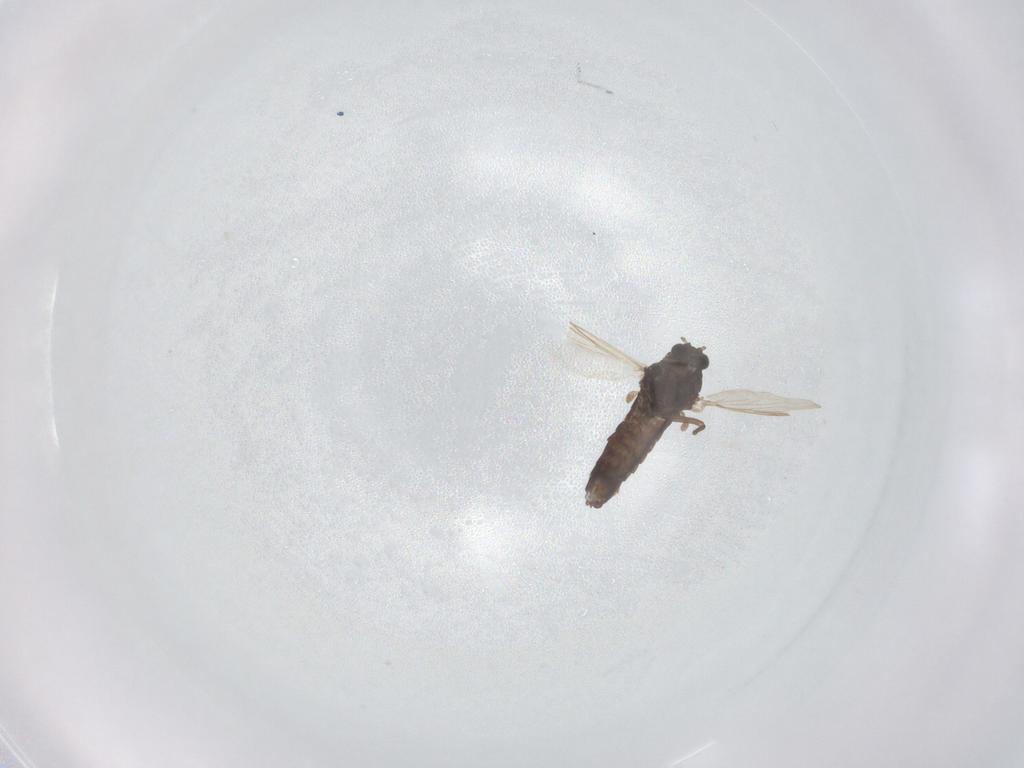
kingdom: Animalia
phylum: Arthropoda
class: Insecta
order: Diptera
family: Chironomidae
